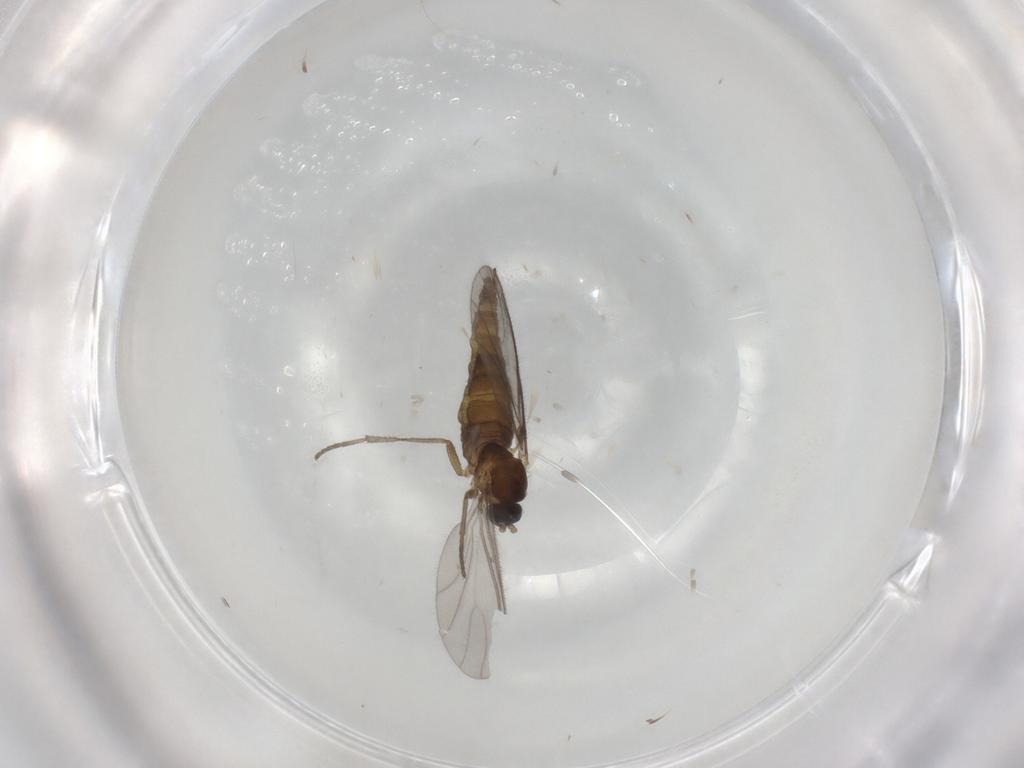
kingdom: Animalia
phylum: Arthropoda
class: Insecta
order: Diptera
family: Sciaridae
